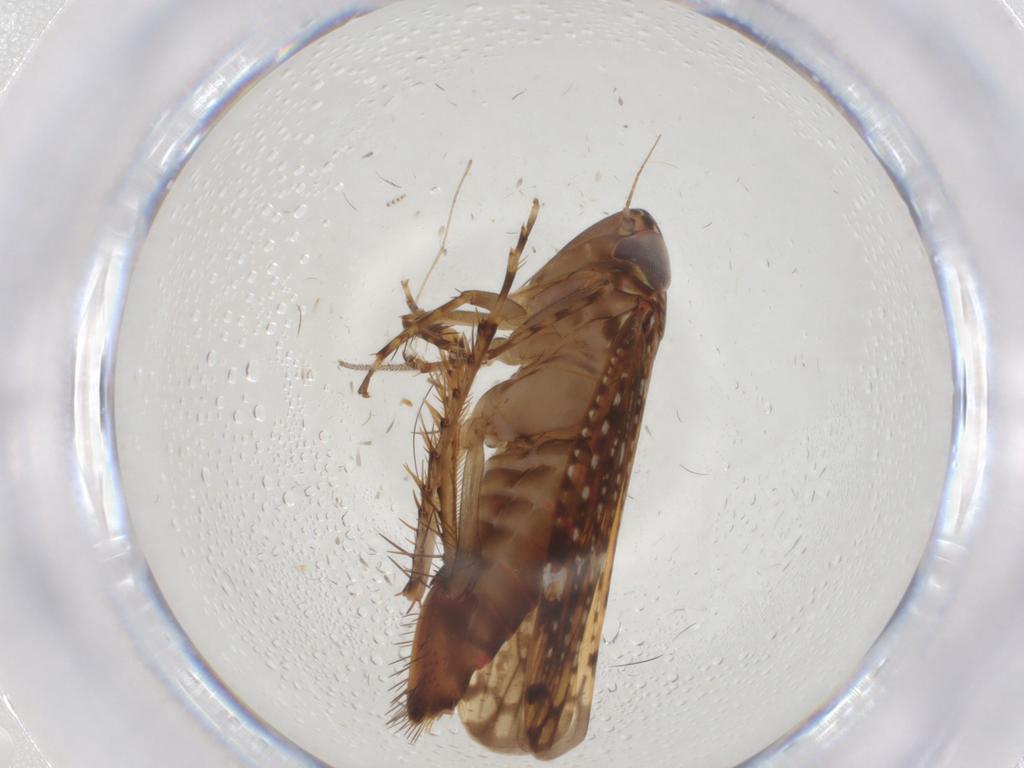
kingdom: Animalia
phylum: Arthropoda
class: Insecta
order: Hemiptera
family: Cicadellidae
